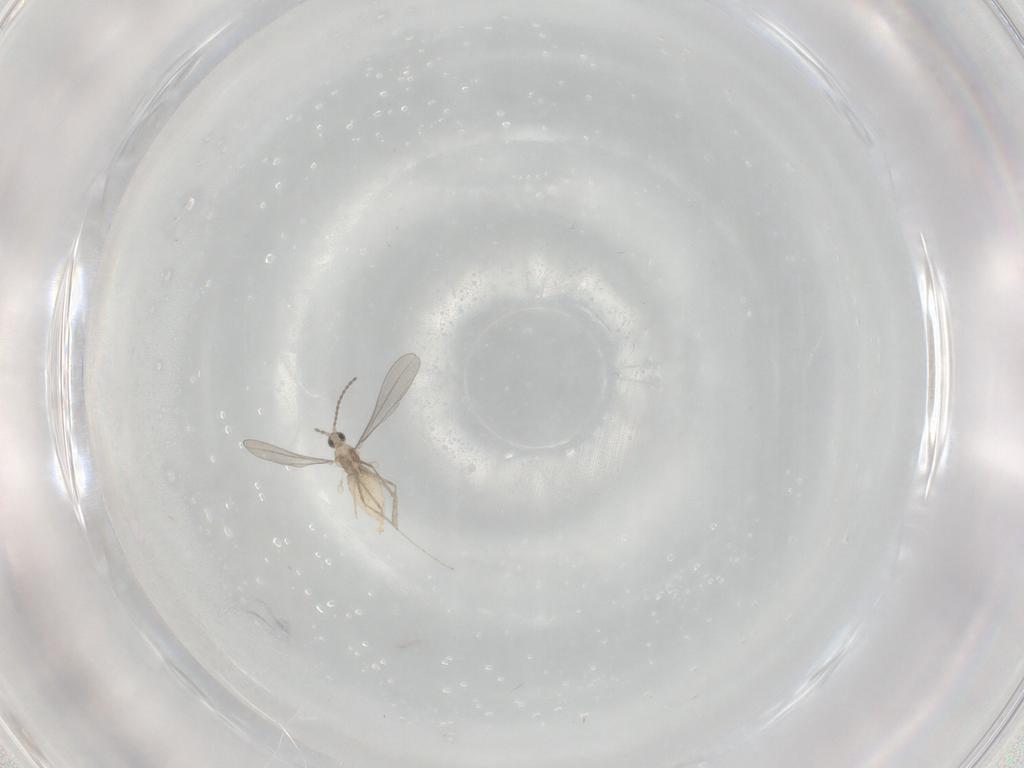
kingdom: Animalia
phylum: Arthropoda
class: Insecta
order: Diptera
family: Cecidomyiidae
